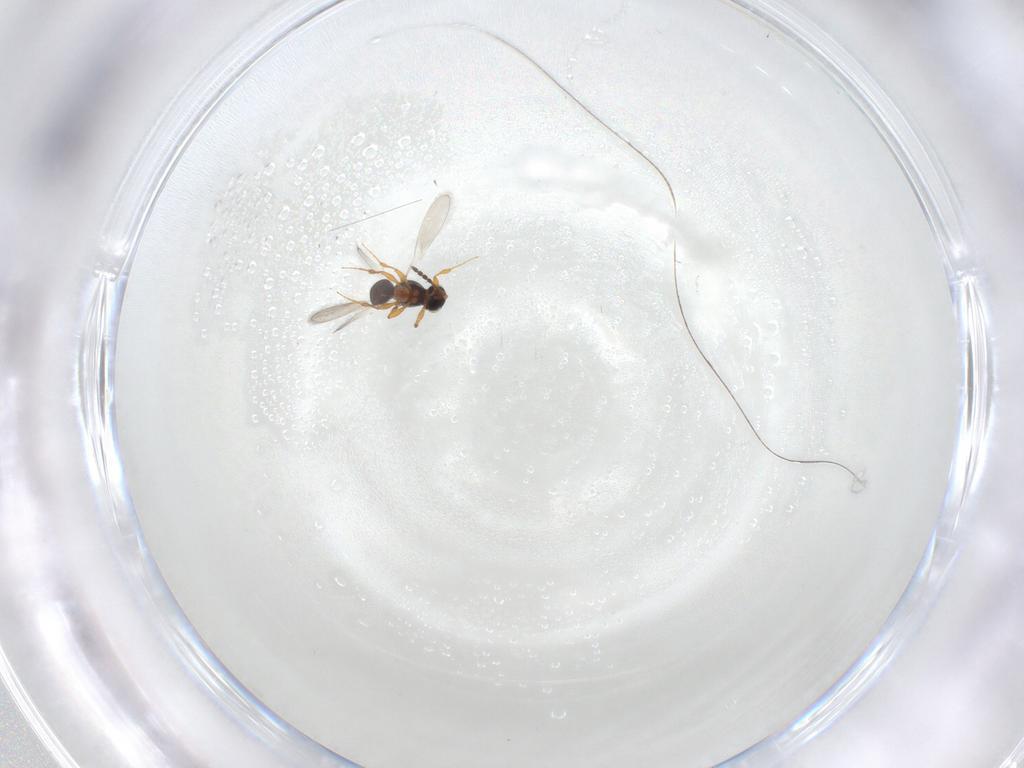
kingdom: Animalia
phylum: Arthropoda
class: Insecta
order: Hymenoptera
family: Platygastridae
